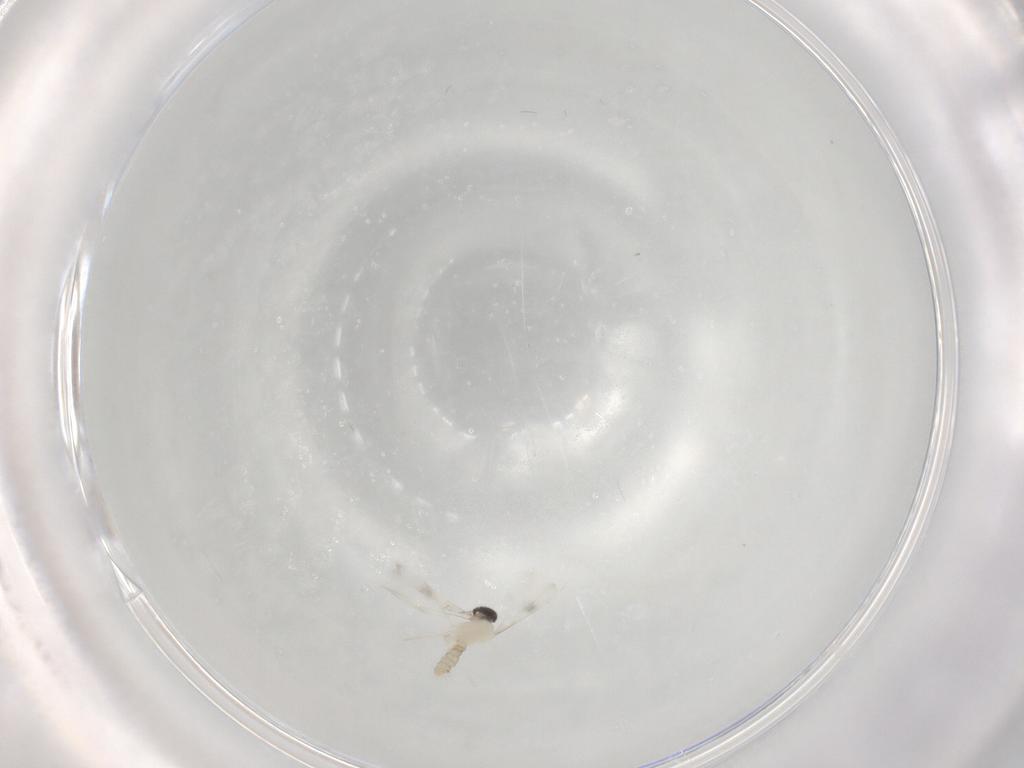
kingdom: Animalia
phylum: Arthropoda
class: Insecta
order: Diptera
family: Cecidomyiidae
